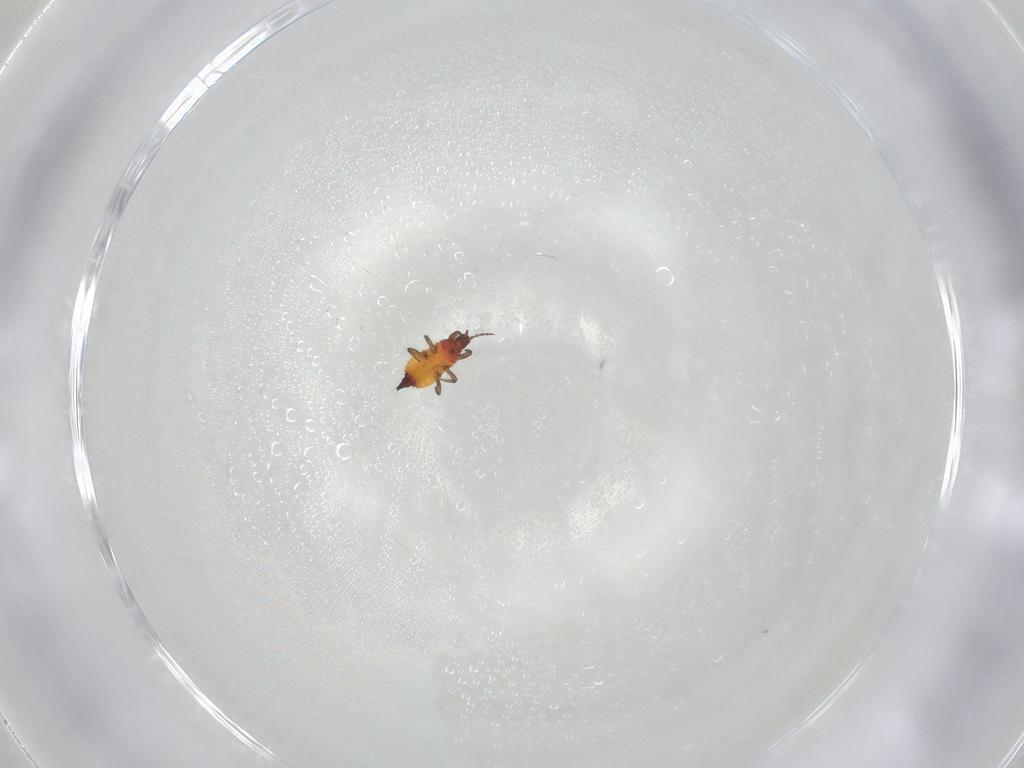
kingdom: Animalia
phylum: Arthropoda
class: Insecta
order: Thysanoptera
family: Phlaeothripidae
